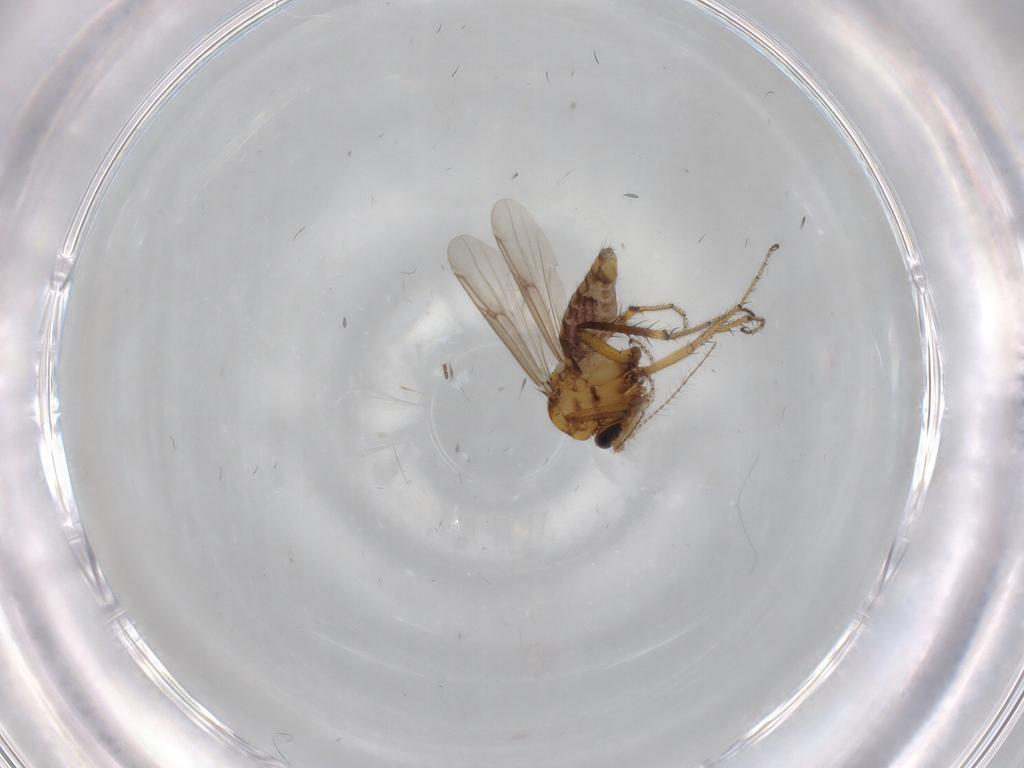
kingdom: Animalia
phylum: Arthropoda
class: Insecta
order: Diptera
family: Ceratopogonidae
